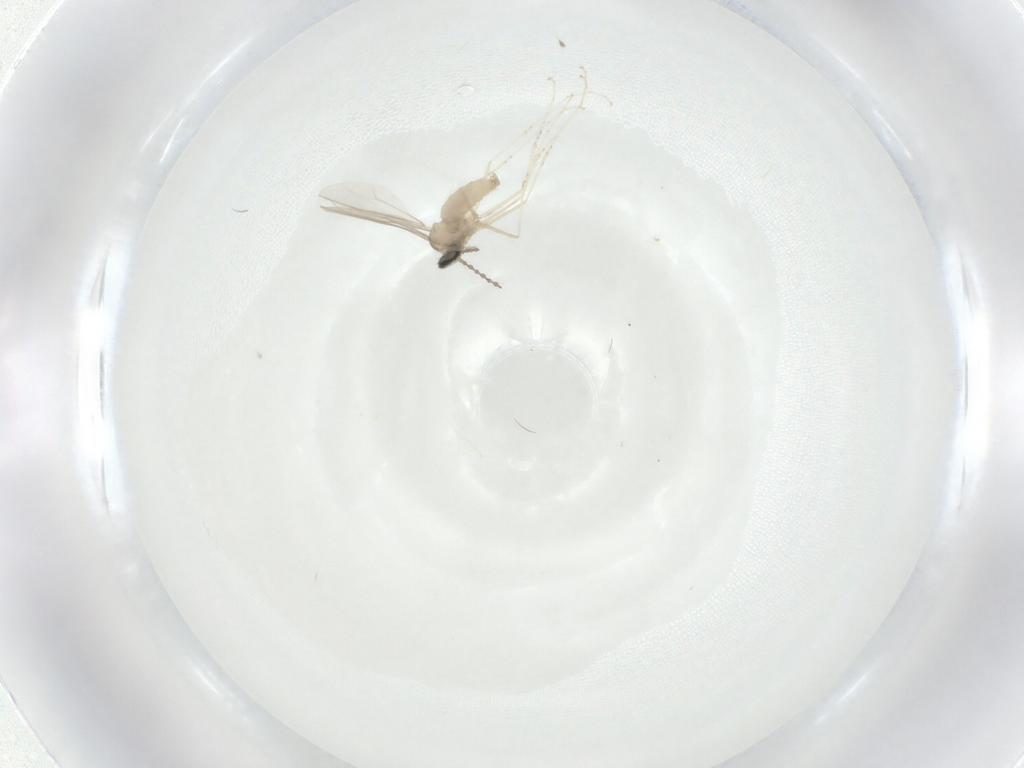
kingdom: Animalia
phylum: Arthropoda
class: Insecta
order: Diptera
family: Cecidomyiidae
